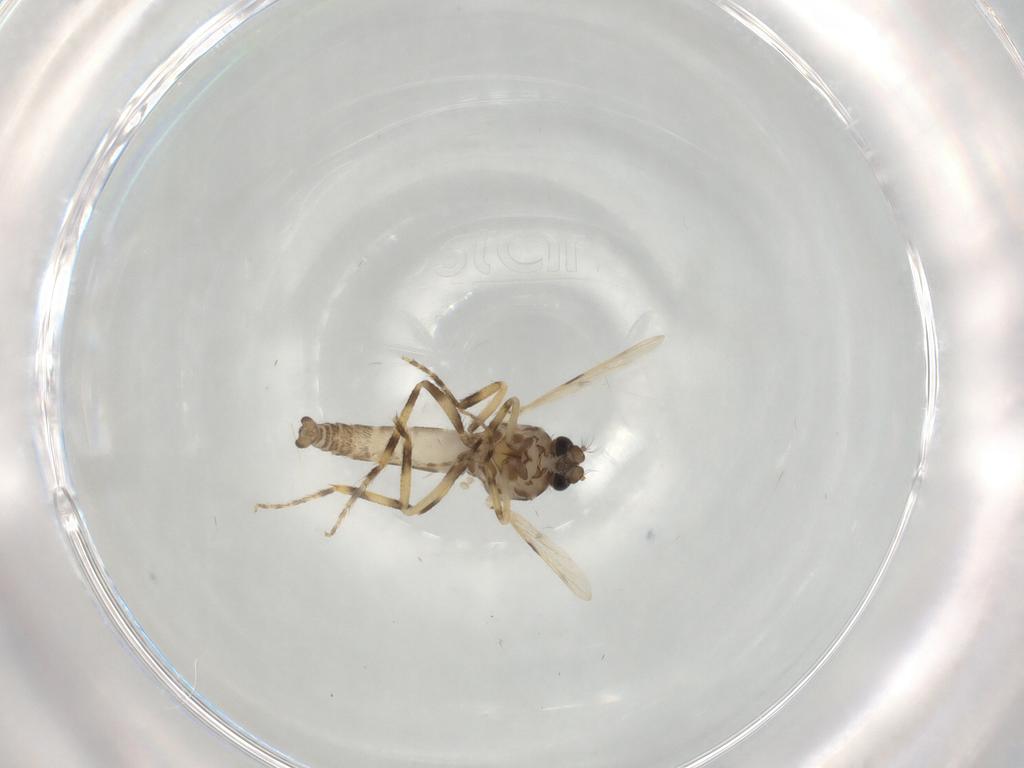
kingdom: Animalia
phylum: Arthropoda
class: Insecta
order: Diptera
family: Ceratopogonidae
